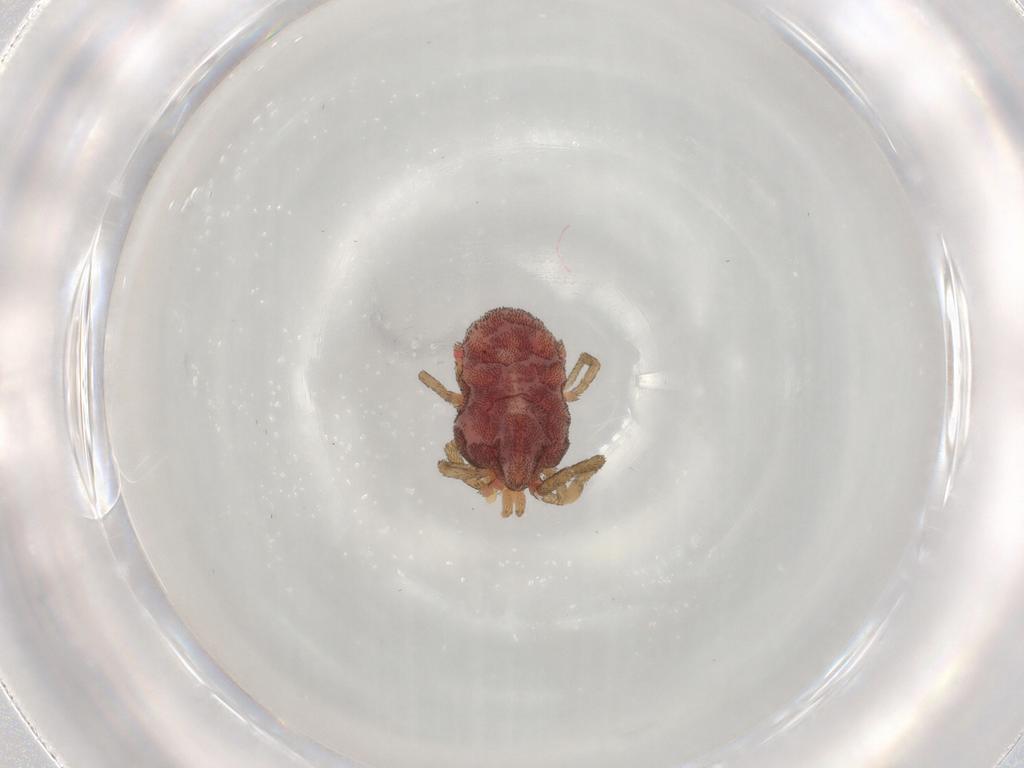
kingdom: Animalia
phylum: Arthropoda
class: Arachnida
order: Trombidiformes
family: Erythraeidae
